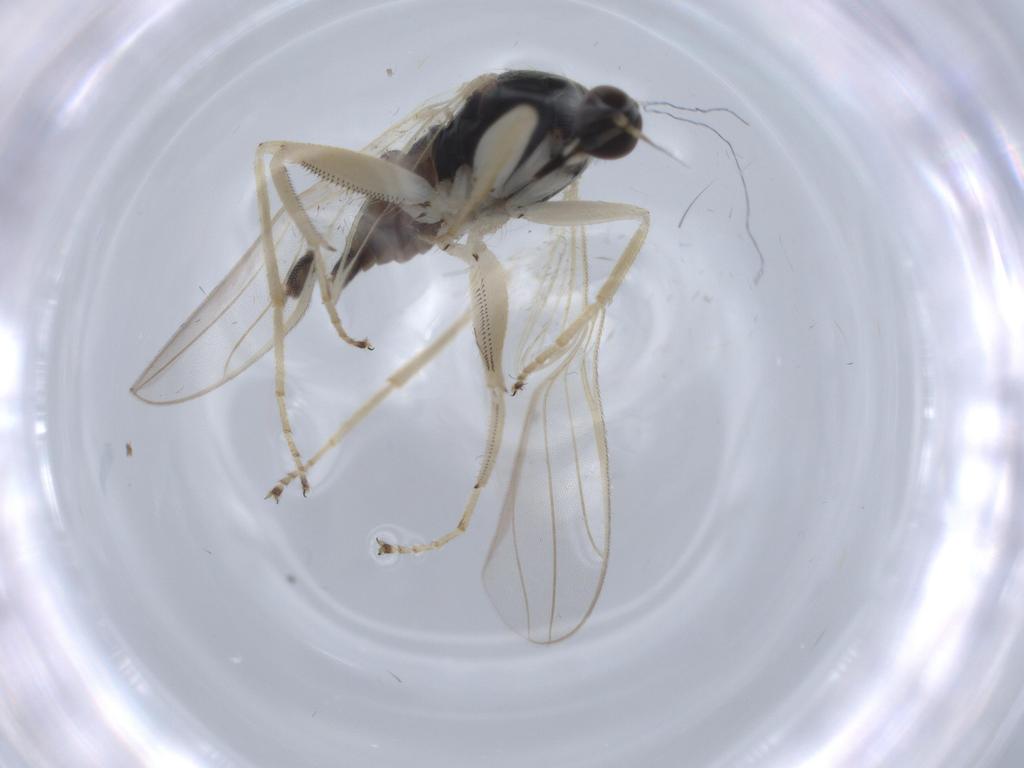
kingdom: Animalia
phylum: Arthropoda
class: Insecta
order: Diptera
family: Hybotidae
